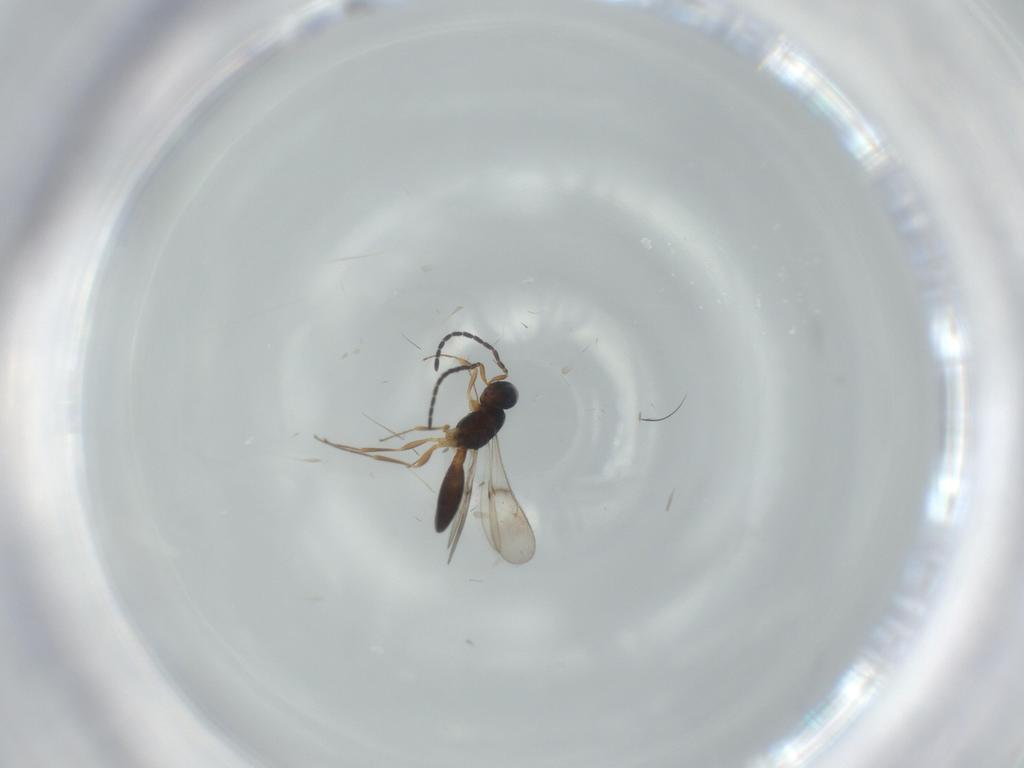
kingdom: Animalia
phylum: Arthropoda
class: Insecta
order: Hymenoptera
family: Scelionidae
